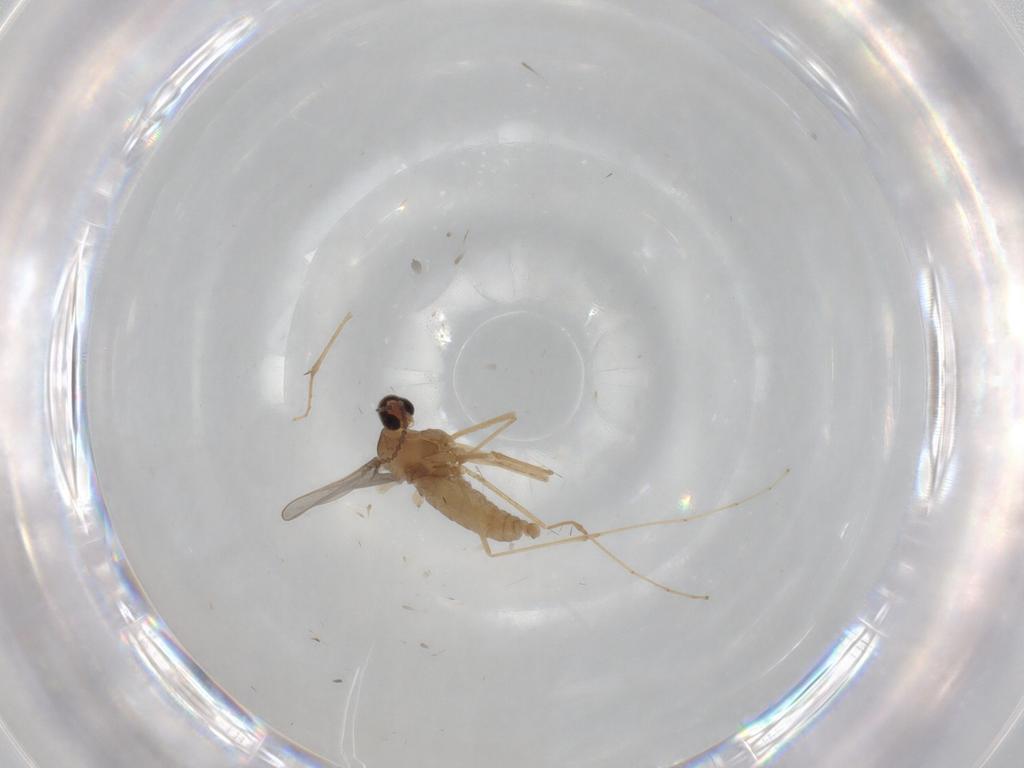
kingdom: Animalia
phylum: Arthropoda
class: Insecta
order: Diptera
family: Cecidomyiidae
